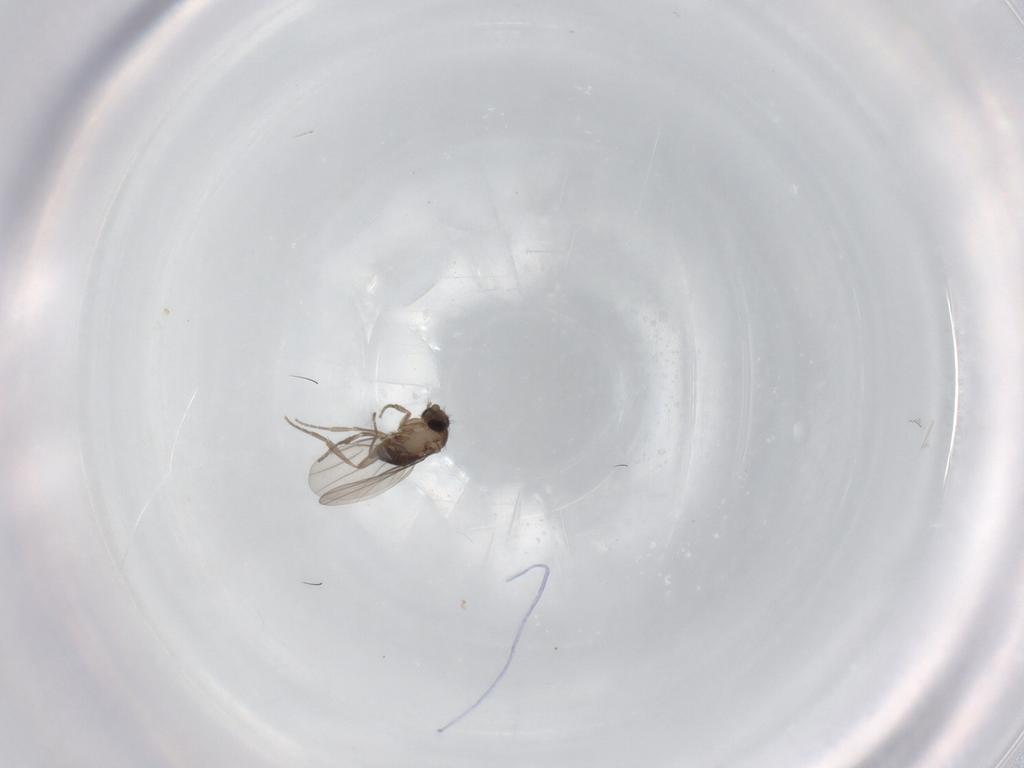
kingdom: Animalia
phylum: Arthropoda
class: Insecta
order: Diptera
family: Phoridae
